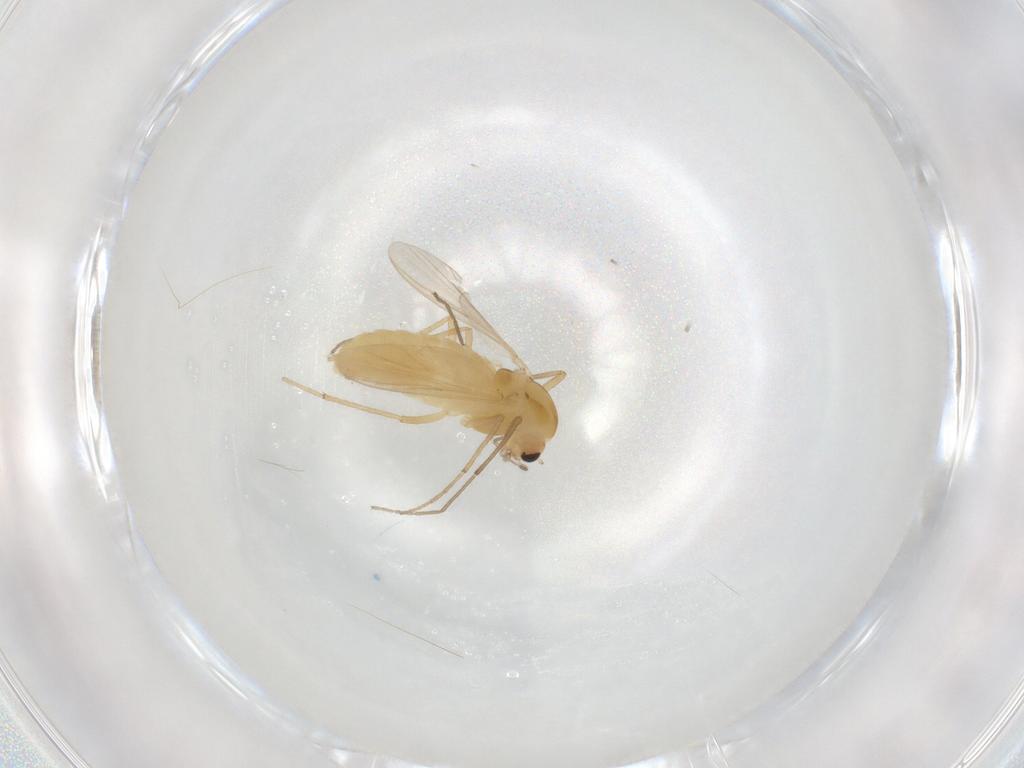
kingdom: Animalia
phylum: Arthropoda
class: Insecta
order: Diptera
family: Chironomidae
